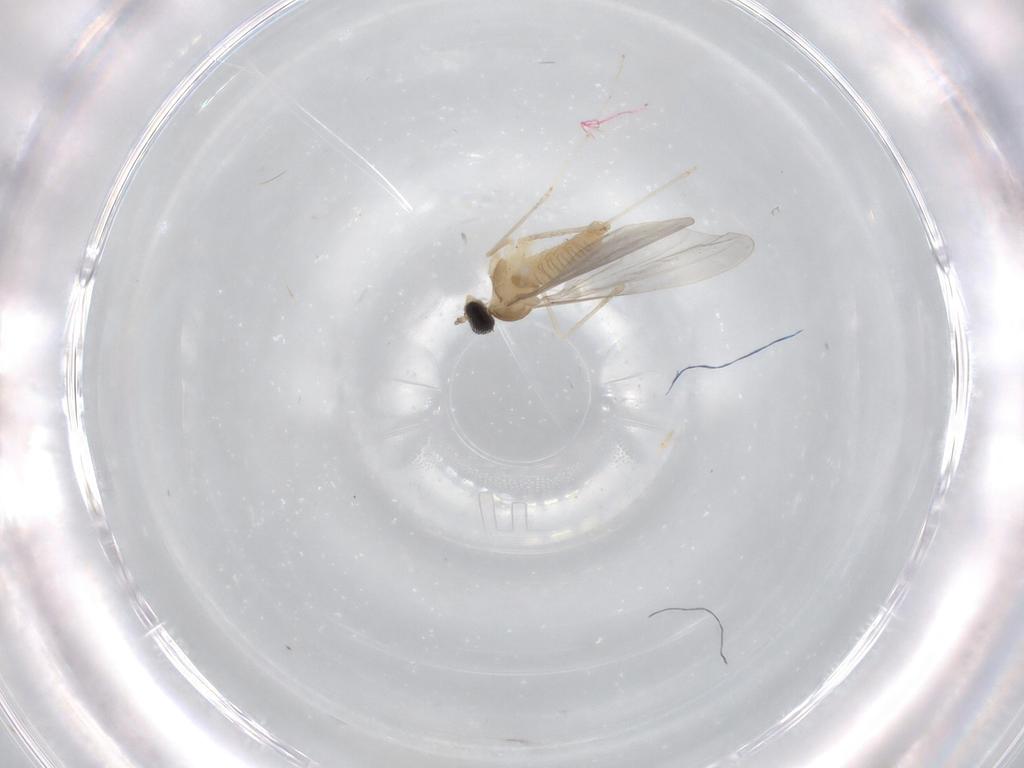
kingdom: Animalia
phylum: Arthropoda
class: Insecta
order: Diptera
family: Cecidomyiidae
